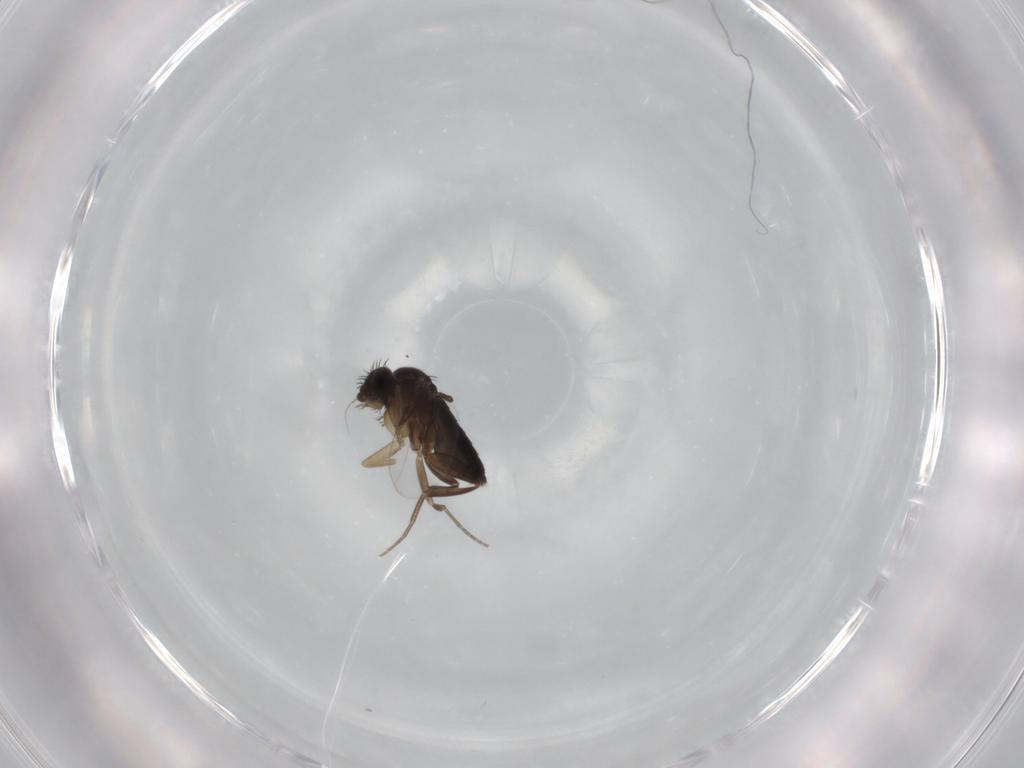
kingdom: Animalia
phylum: Arthropoda
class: Insecta
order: Diptera
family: Phoridae
